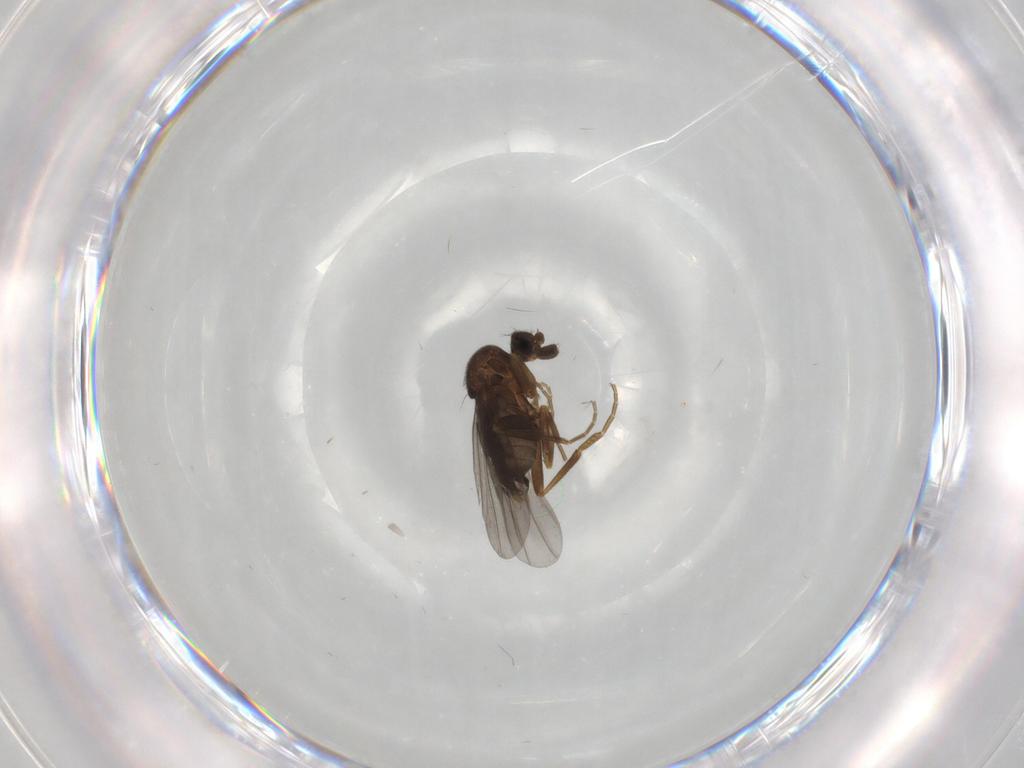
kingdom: Animalia
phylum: Arthropoda
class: Insecta
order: Diptera
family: Phoridae
